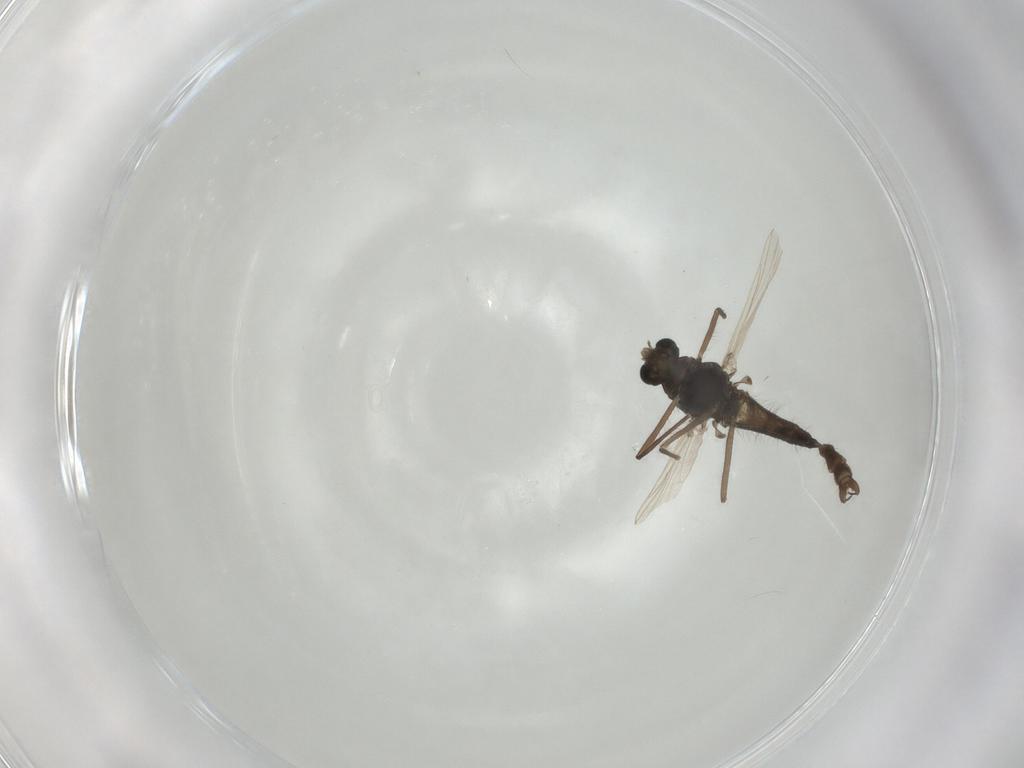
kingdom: Animalia
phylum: Arthropoda
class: Insecta
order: Diptera
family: Chironomidae
